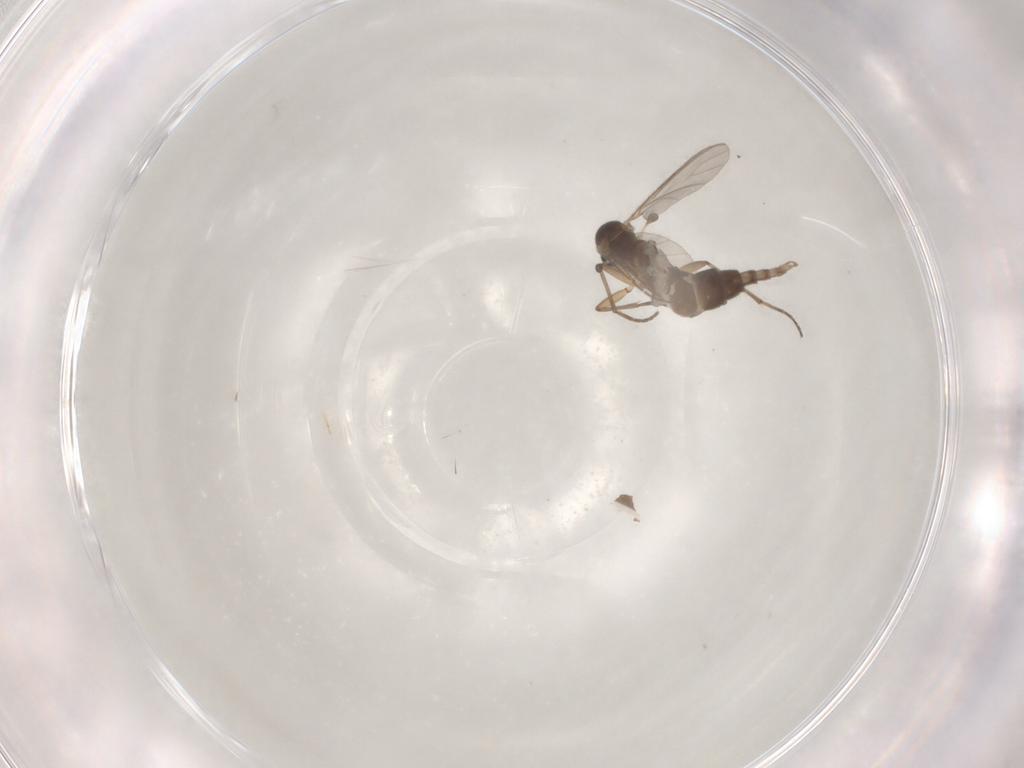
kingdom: Animalia
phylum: Arthropoda
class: Insecta
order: Diptera
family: Sciaridae
